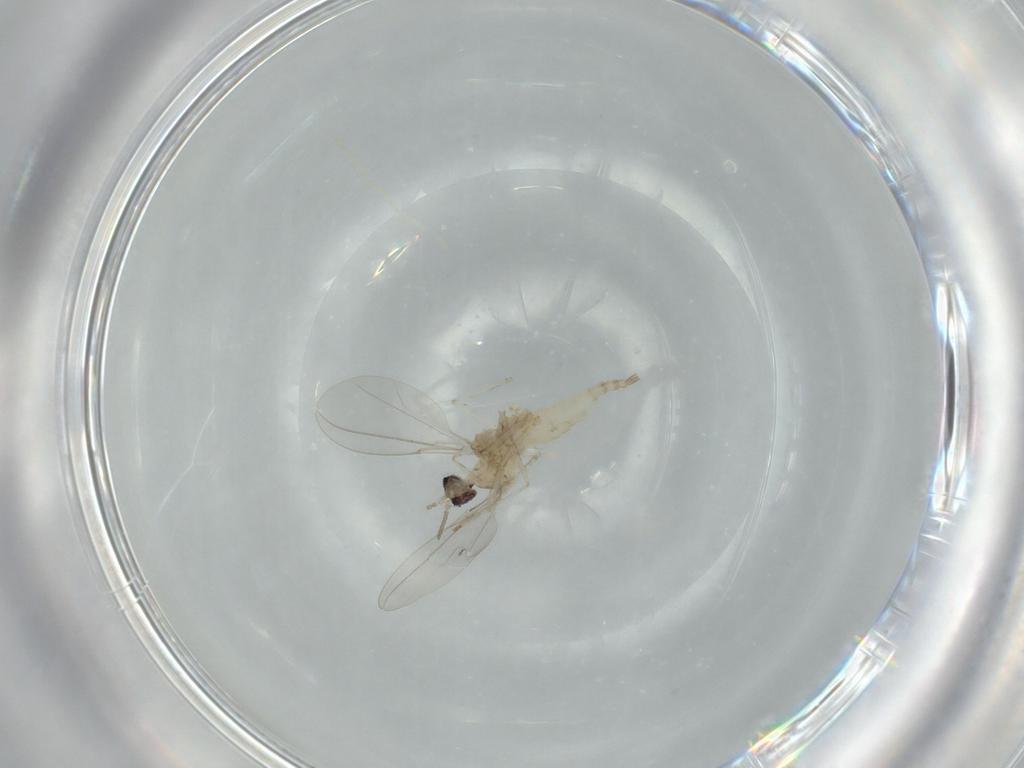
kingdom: Animalia
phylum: Arthropoda
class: Insecta
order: Diptera
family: Cecidomyiidae
